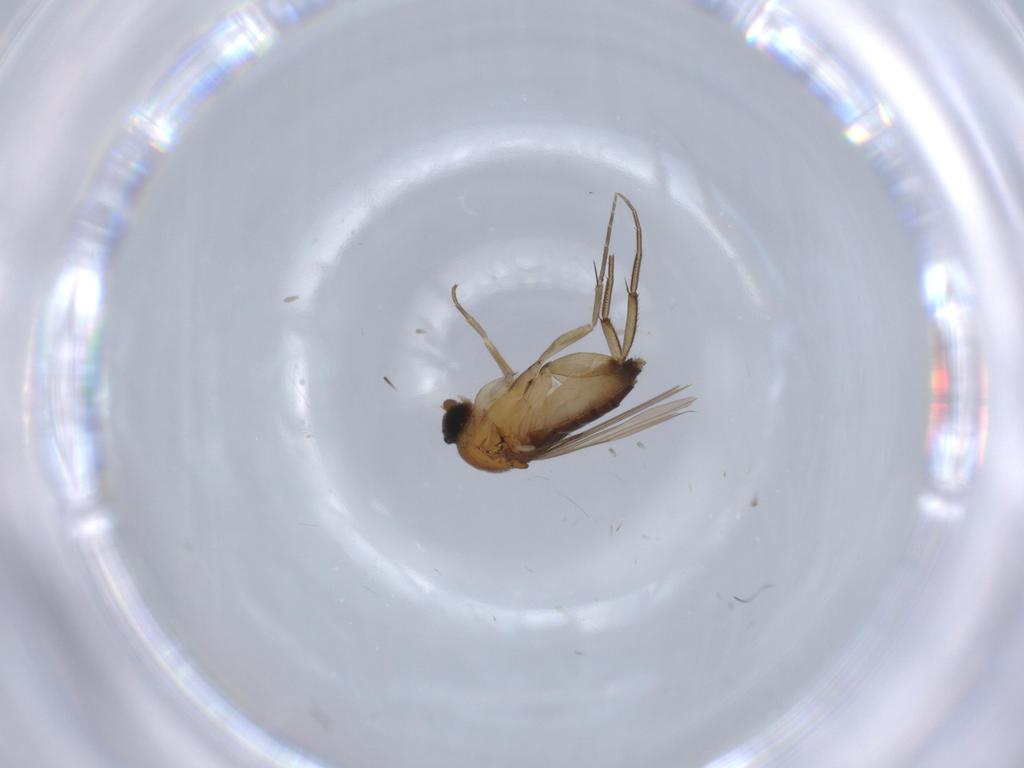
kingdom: Animalia
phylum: Arthropoda
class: Insecta
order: Diptera
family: Phoridae
